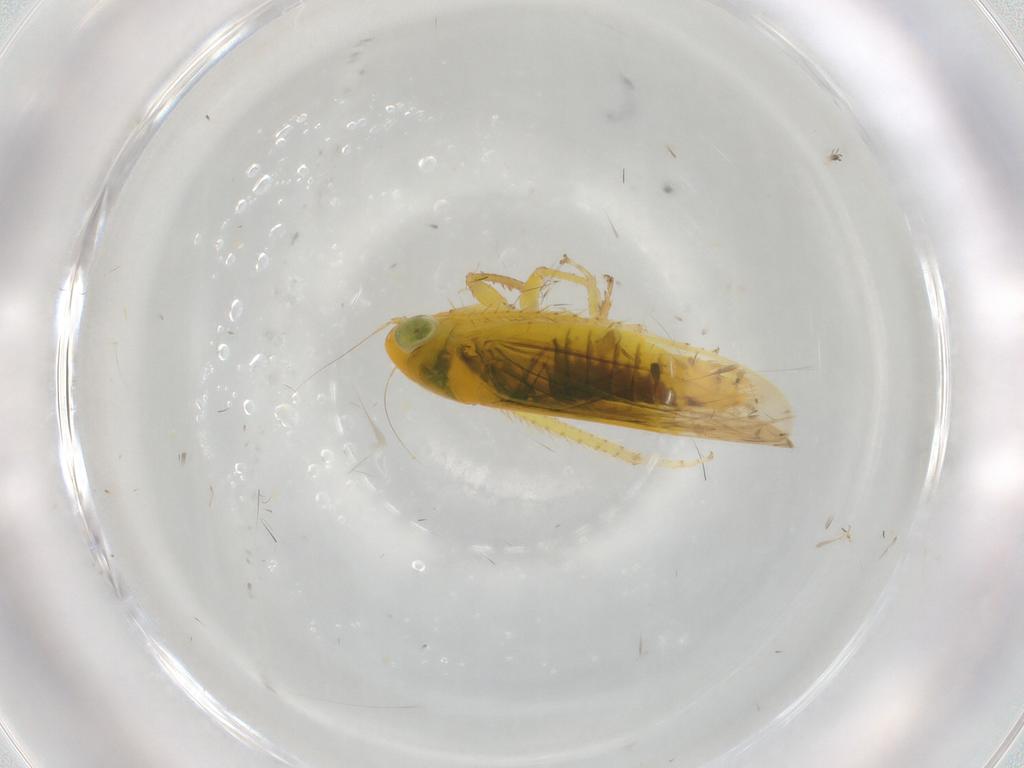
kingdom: Animalia
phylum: Arthropoda
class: Insecta
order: Hemiptera
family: Cicadellidae
